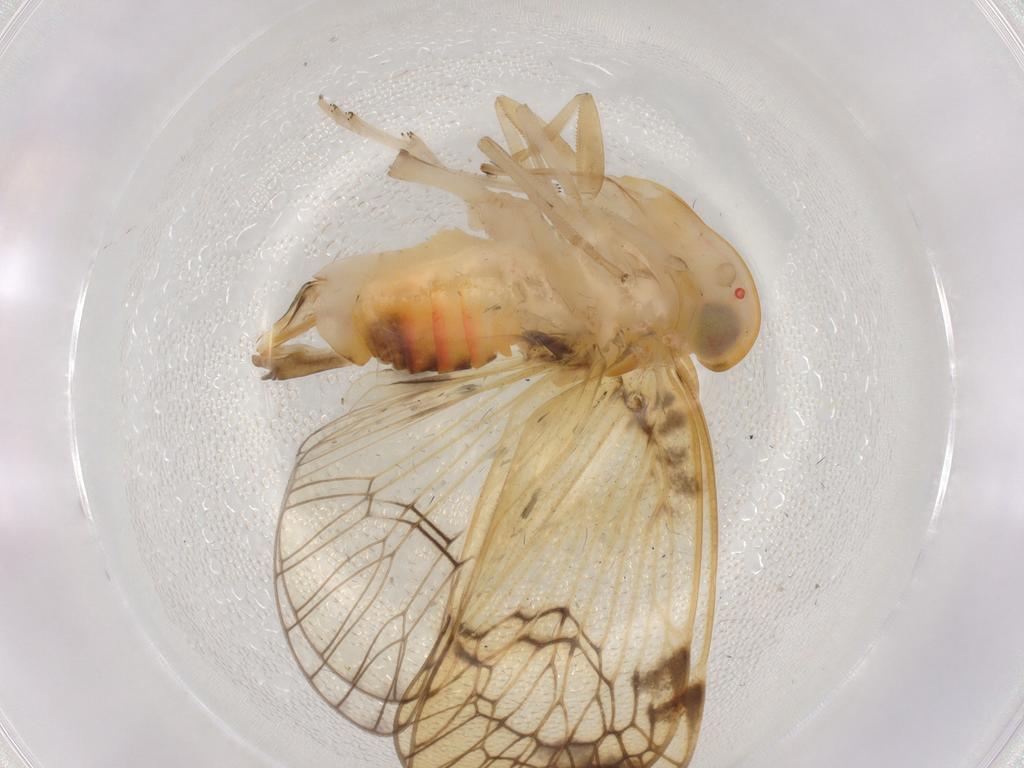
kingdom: Animalia
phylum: Arthropoda
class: Insecta
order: Hemiptera
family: Cixiidae
